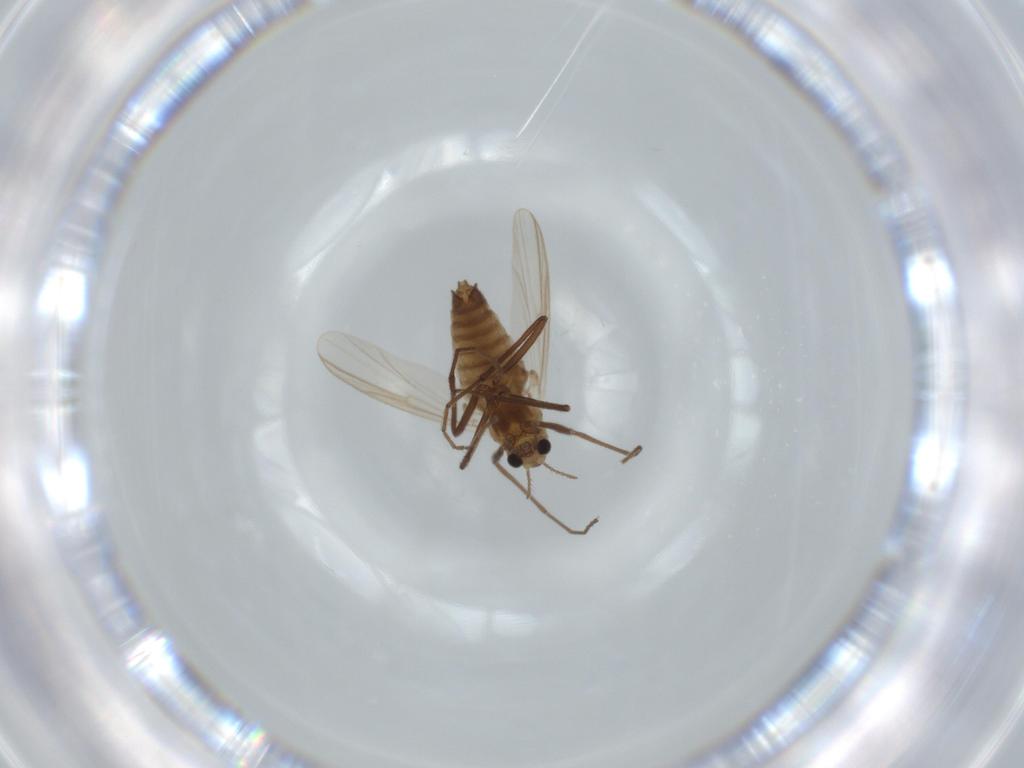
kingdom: Animalia
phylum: Arthropoda
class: Insecta
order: Diptera
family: Chironomidae
